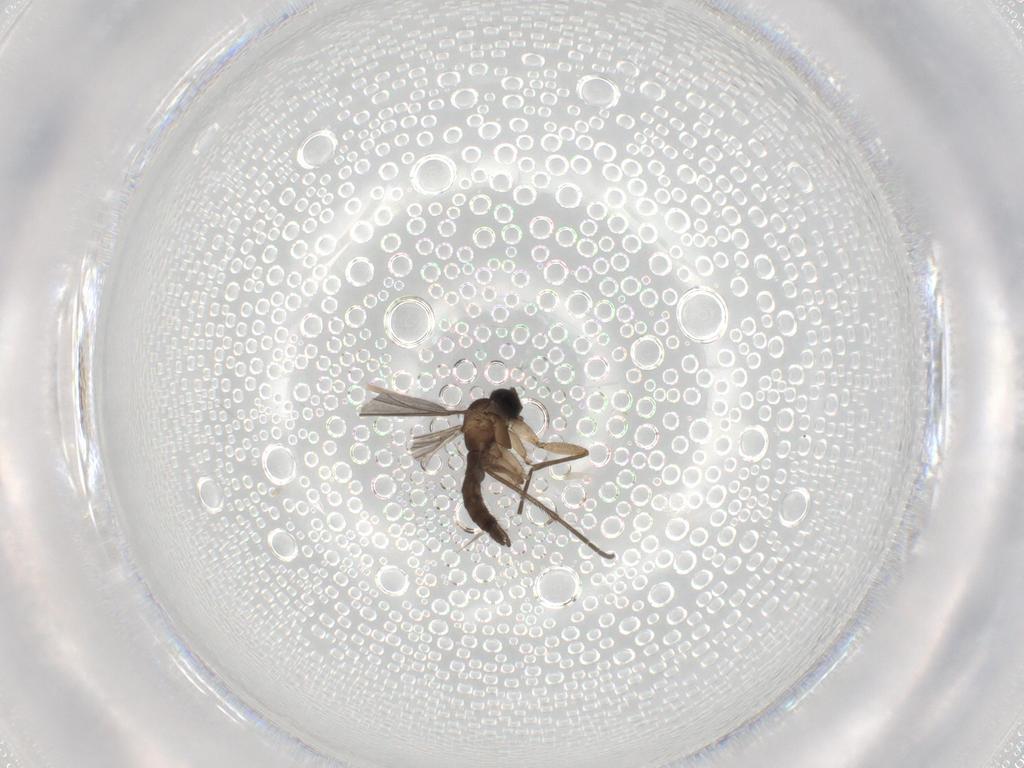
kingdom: Animalia
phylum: Arthropoda
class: Insecta
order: Diptera
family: Sciaridae
